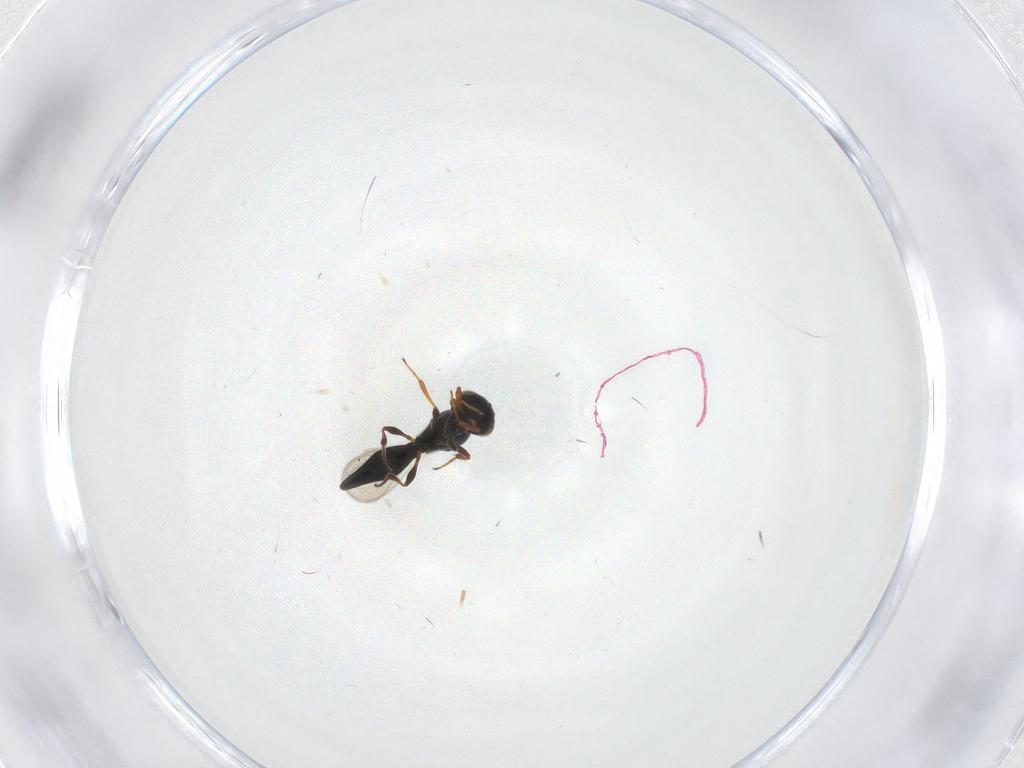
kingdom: Animalia
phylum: Arthropoda
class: Insecta
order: Hymenoptera
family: Platygastridae
